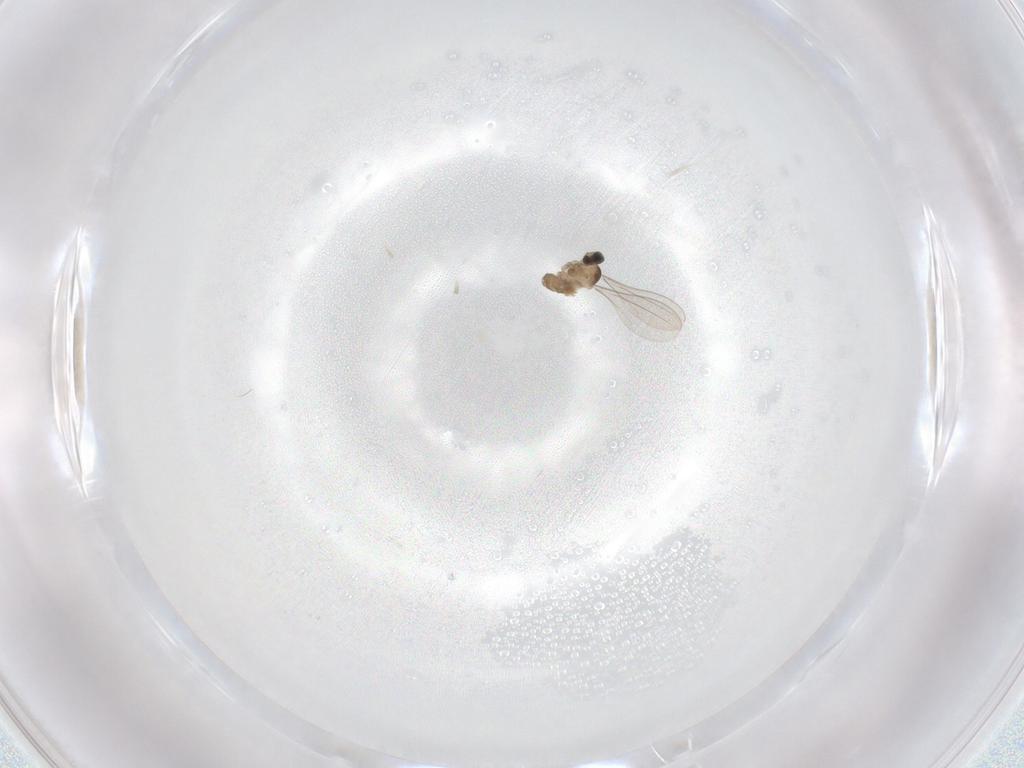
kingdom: Animalia
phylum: Arthropoda
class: Insecta
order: Diptera
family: Cecidomyiidae
